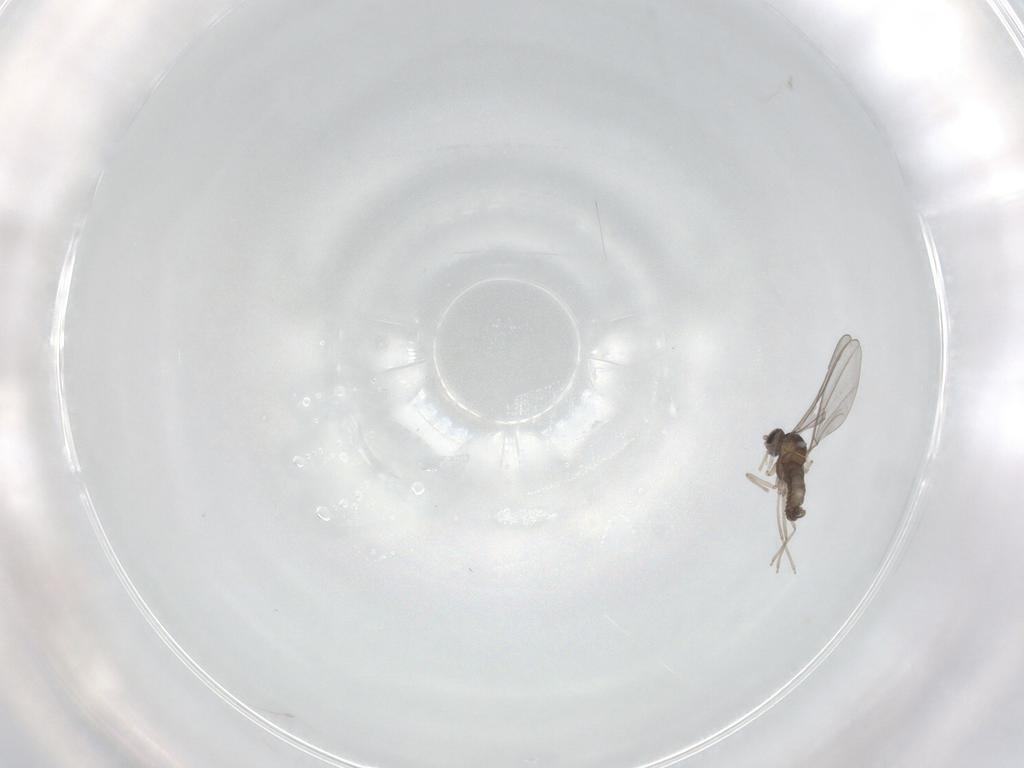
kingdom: Animalia
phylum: Arthropoda
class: Insecta
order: Diptera
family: Cecidomyiidae
